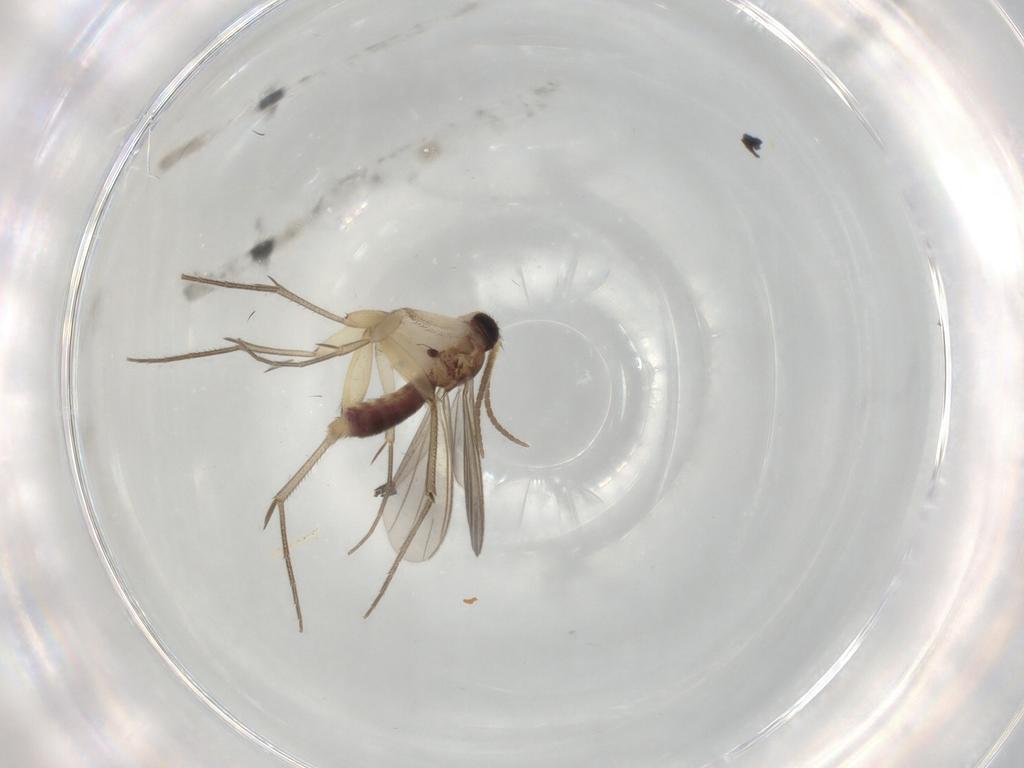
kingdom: Animalia
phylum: Arthropoda
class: Insecta
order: Diptera
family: Mycetophilidae
